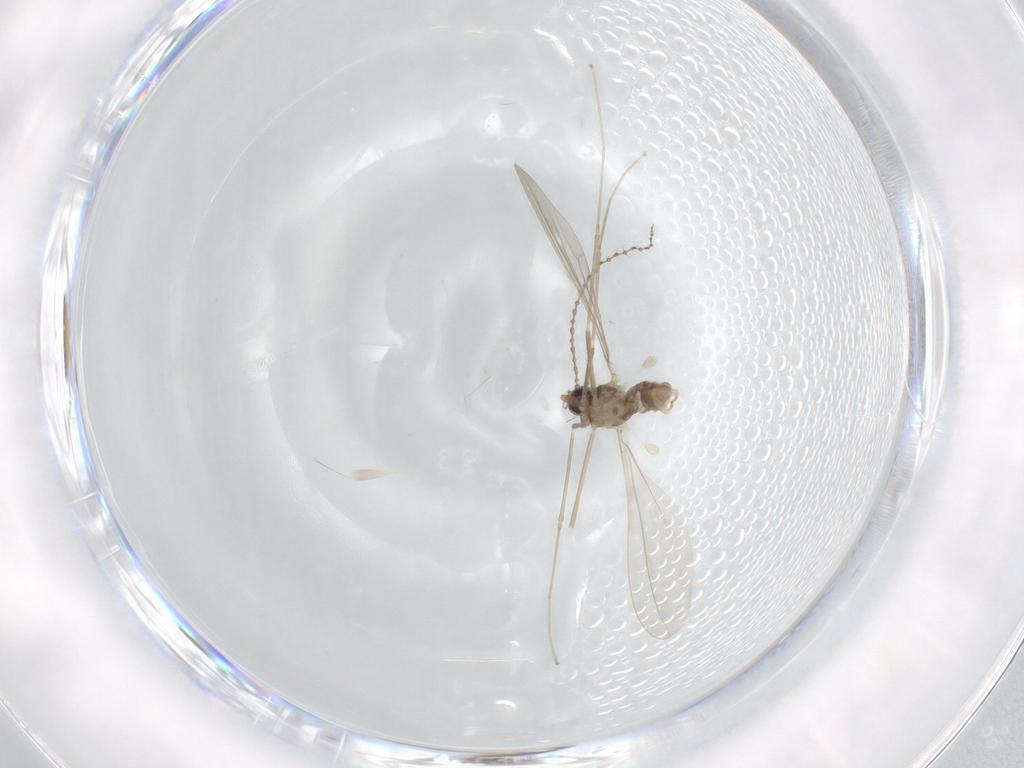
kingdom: Animalia
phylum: Arthropoda
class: Insecta
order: Diptera
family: Cecidomyiidae
